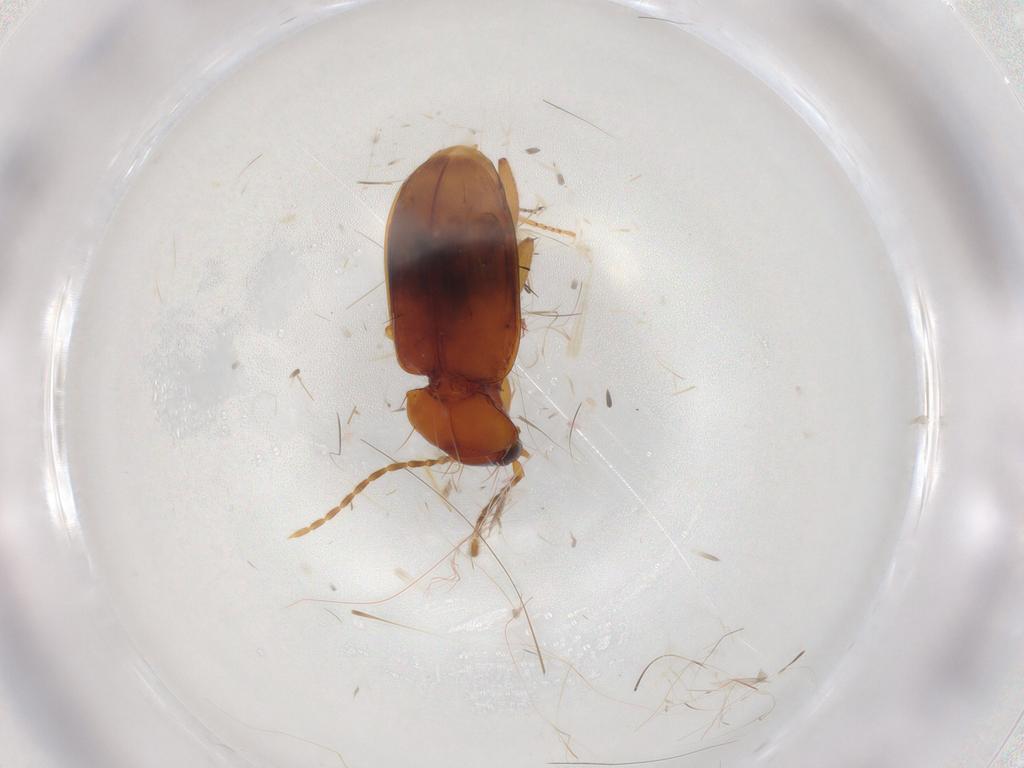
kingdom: Animalia
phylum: Arthropoda
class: Insecta
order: Coleoptera
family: Carabidae
